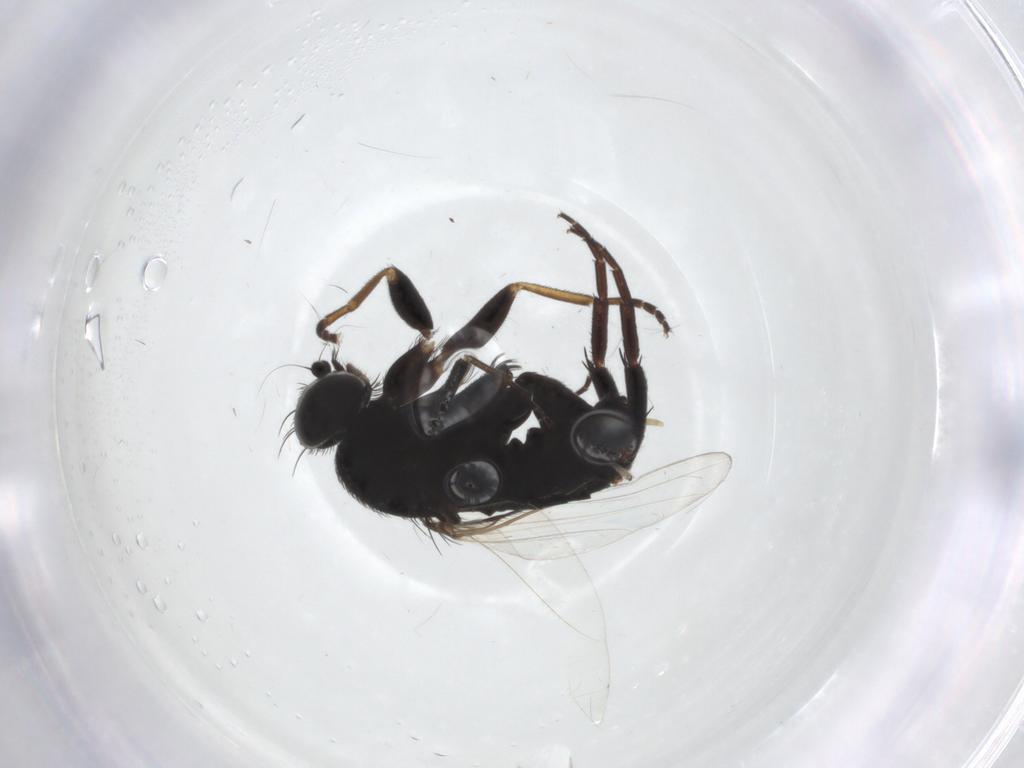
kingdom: Animalia
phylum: Arthropoda
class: Insecta
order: Diptera
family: Phoridae
